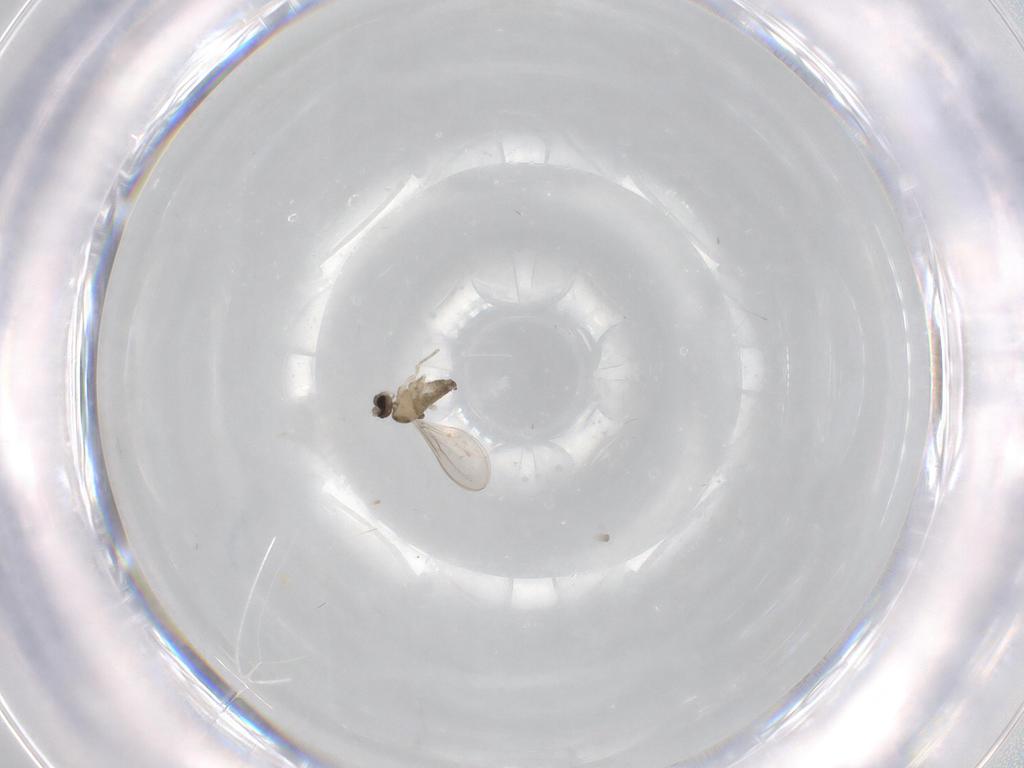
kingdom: Animalia
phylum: Arthropoda
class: Insecta
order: Diptera
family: Cecidomyiidae
